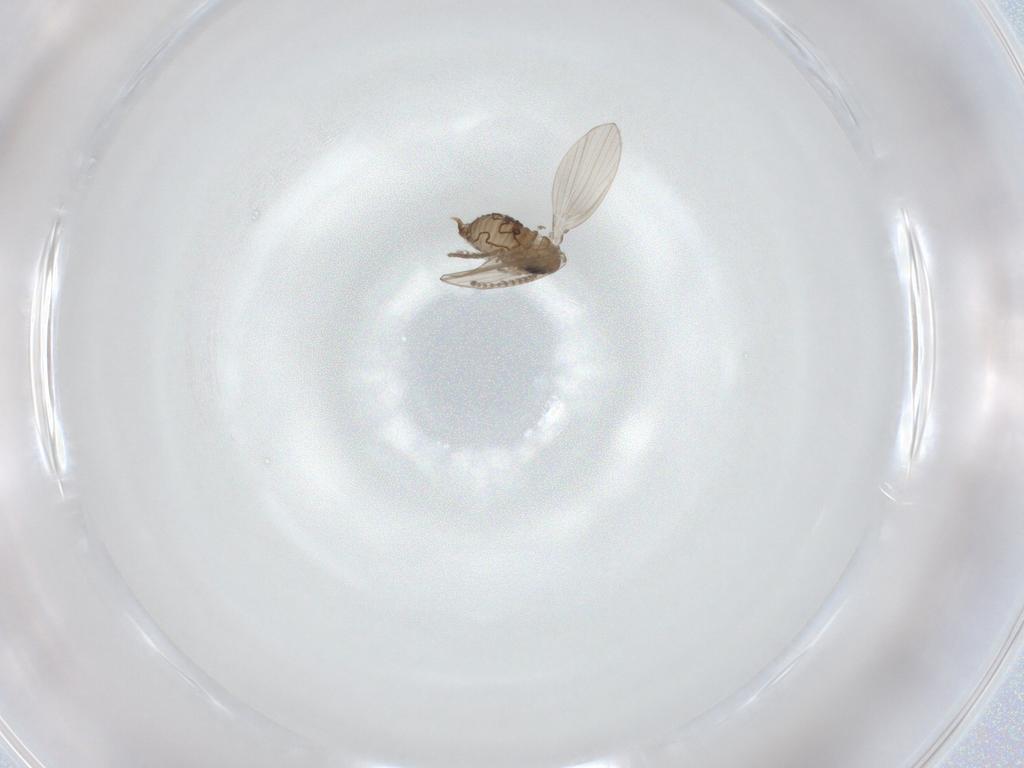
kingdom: Animalia
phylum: Arthropoda
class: Insecta
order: Diptera
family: Psychodidae
